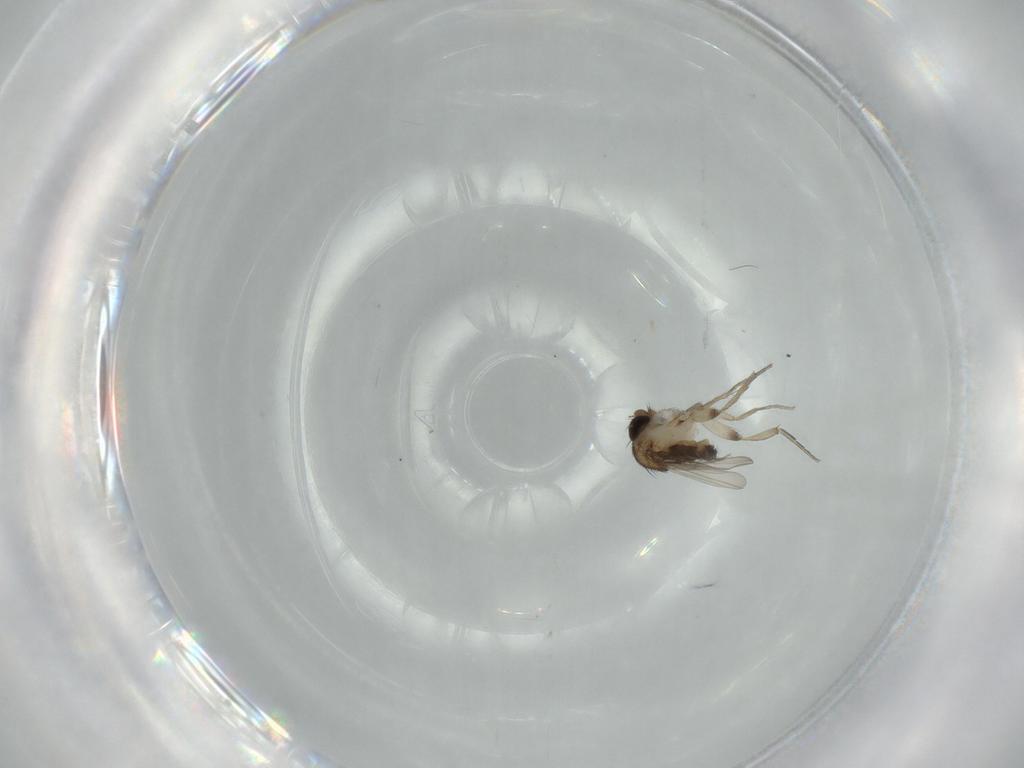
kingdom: Animalia
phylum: Arthropoda
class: Insecta
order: Diptera
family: Phoridae
